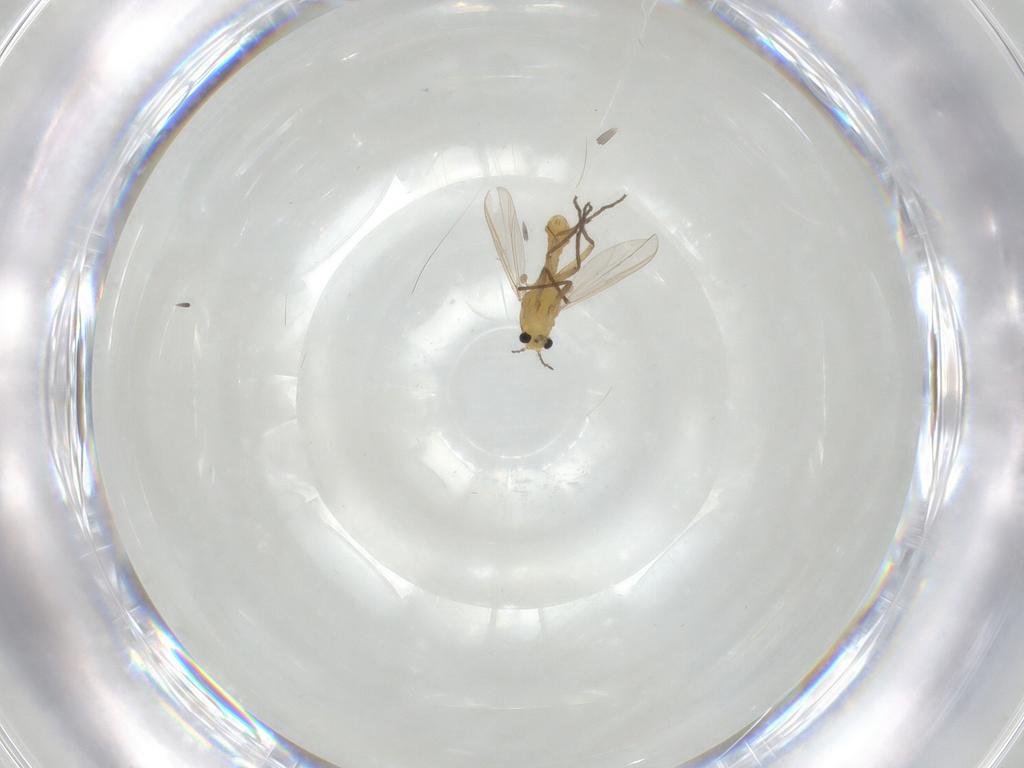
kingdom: Animalia
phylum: Arthropoda
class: Insecta
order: Diptera
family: Chironomidae
